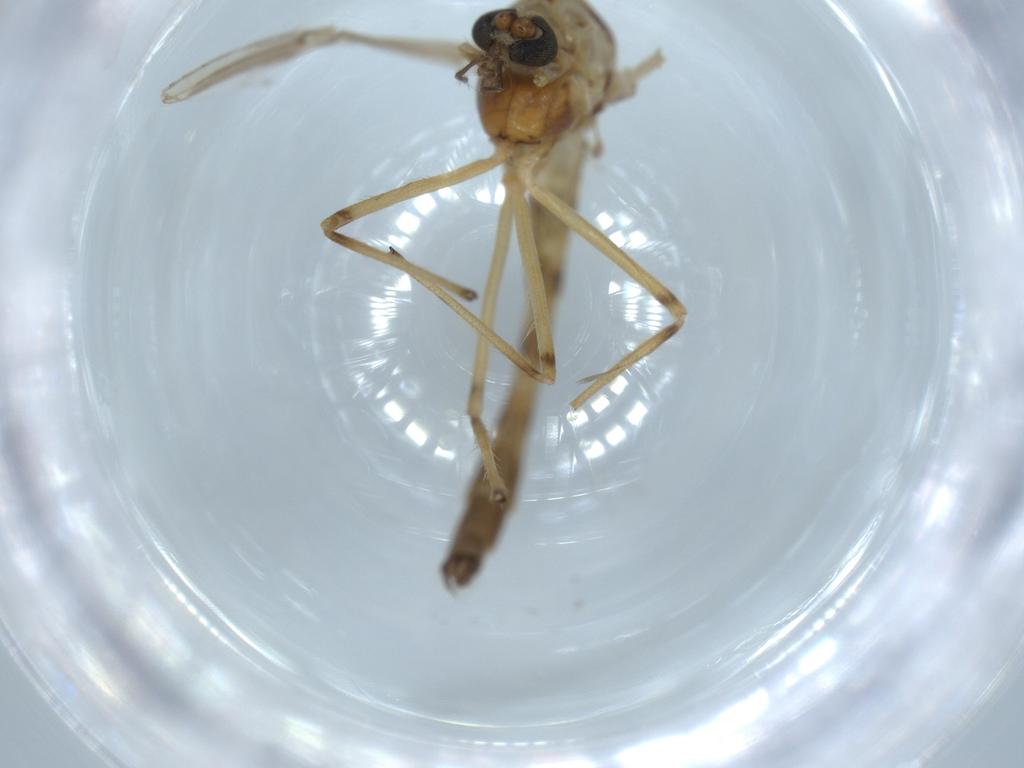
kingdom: Animalia
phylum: Arthropoda
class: Insecta
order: Diptera
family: Chironomidae
